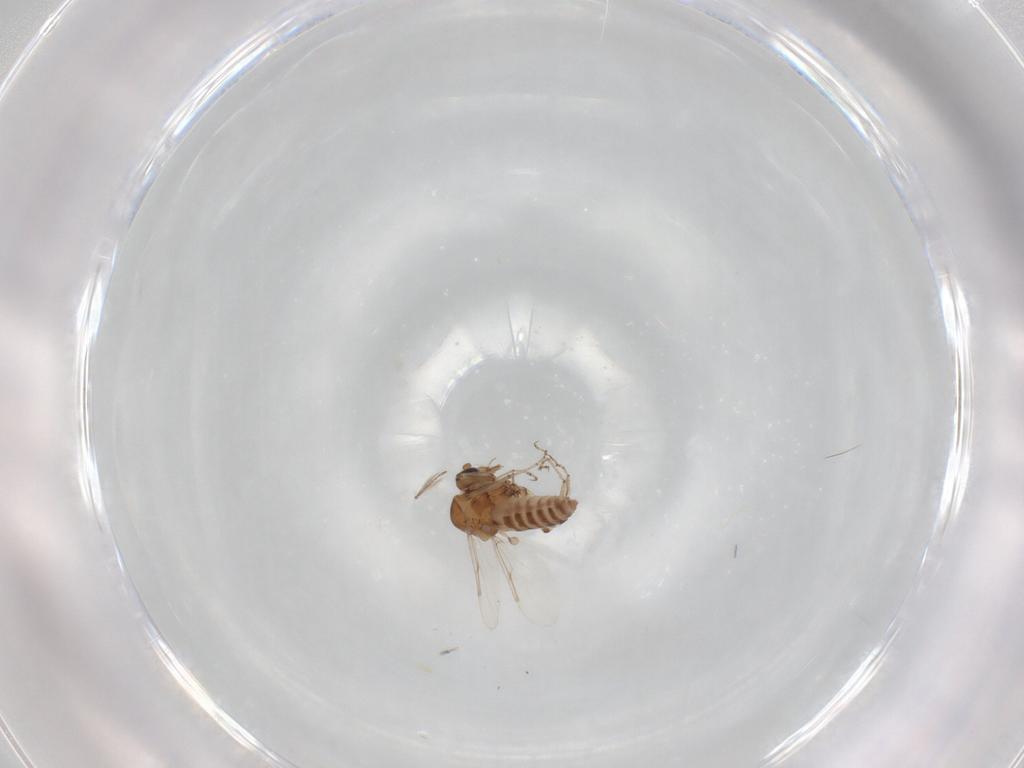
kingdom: Animalia
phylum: Arthropoda
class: Insecta
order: Diptera
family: Ceratopogonidae
